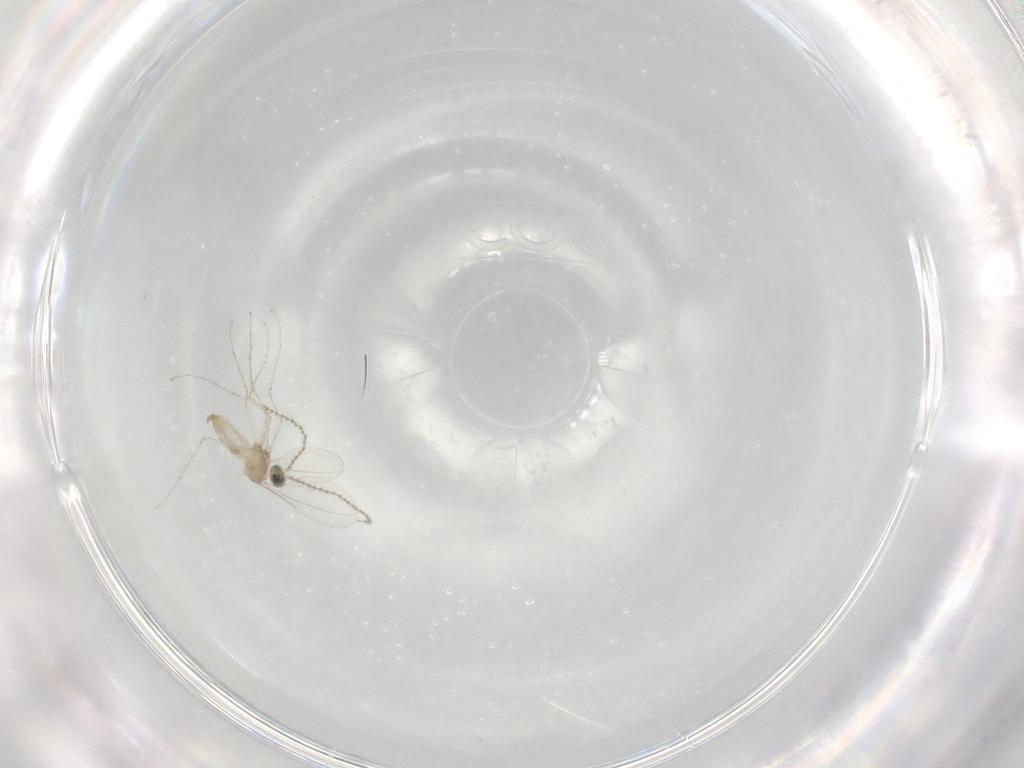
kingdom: Animalia
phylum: Arthropoda
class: Insecta
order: Diptera
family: Cecidomyiidae
